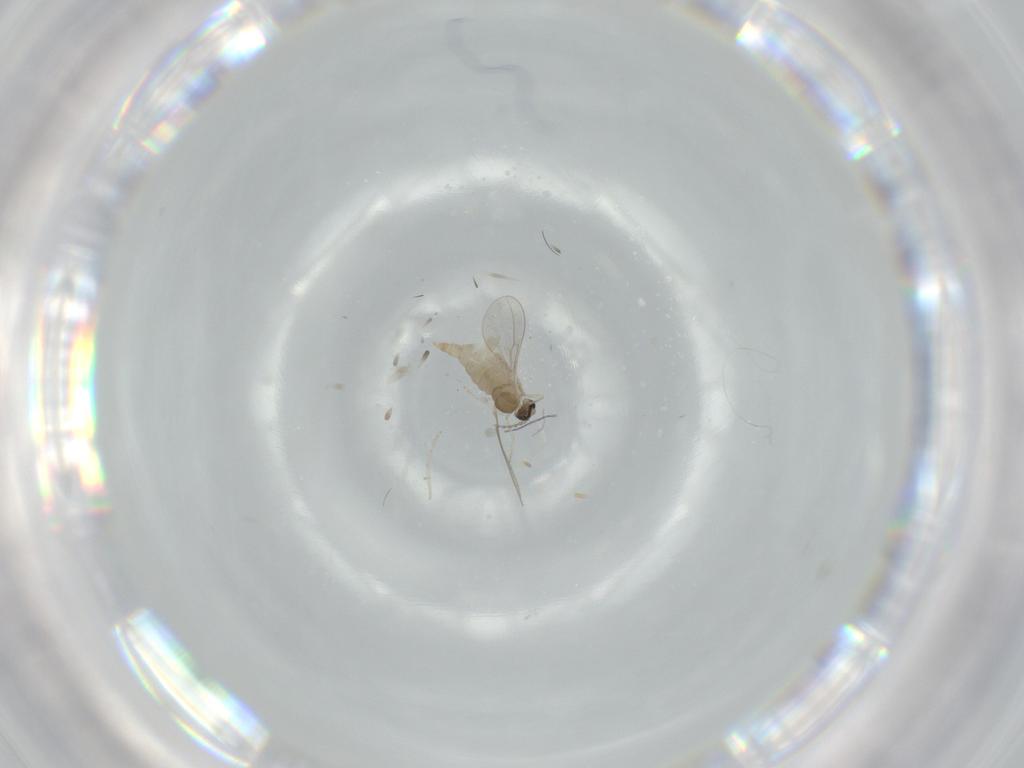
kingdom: Animalia
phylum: Arthropoda
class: Insecta
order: Diptera
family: Cecidomyiidae
